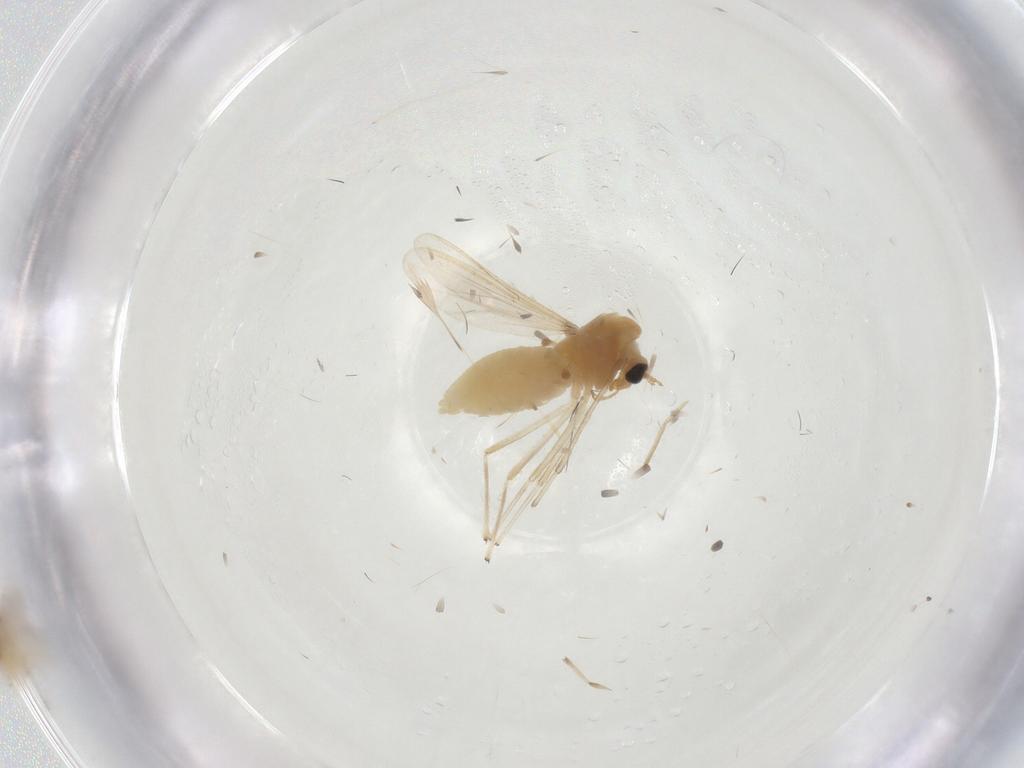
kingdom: Animalia
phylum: Arthropoda
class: Insecta
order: Diptera
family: Chironomidae
